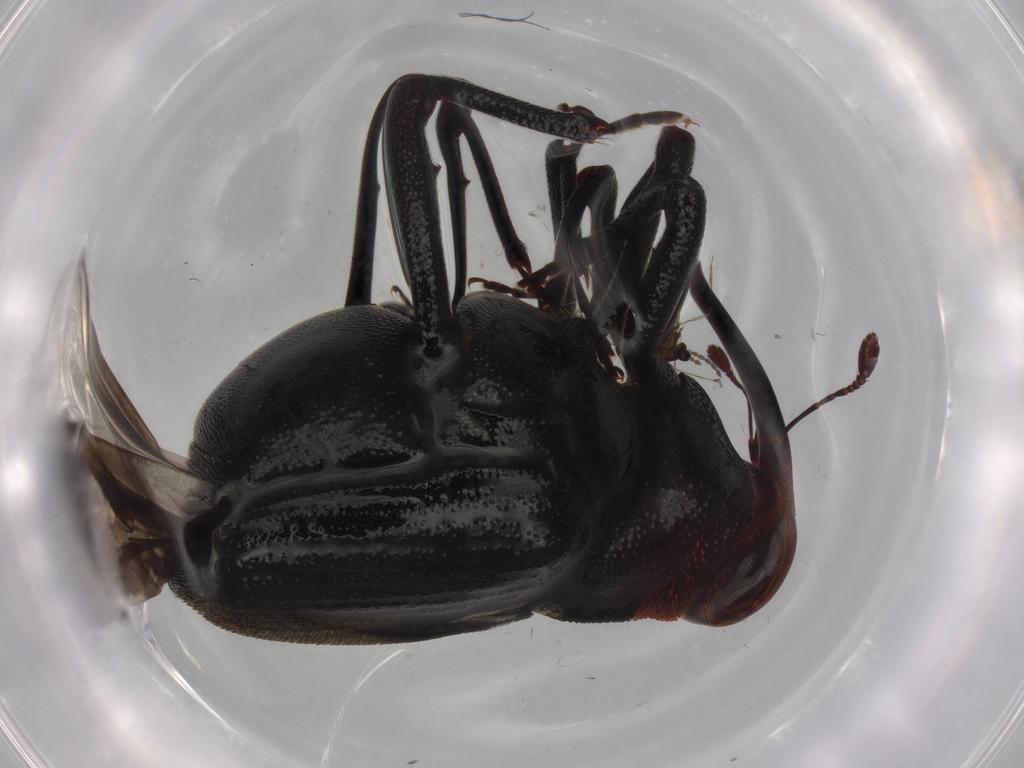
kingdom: Animalia
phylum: Arthropoda
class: Insecta
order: Coleoptera
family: Curculionidae
